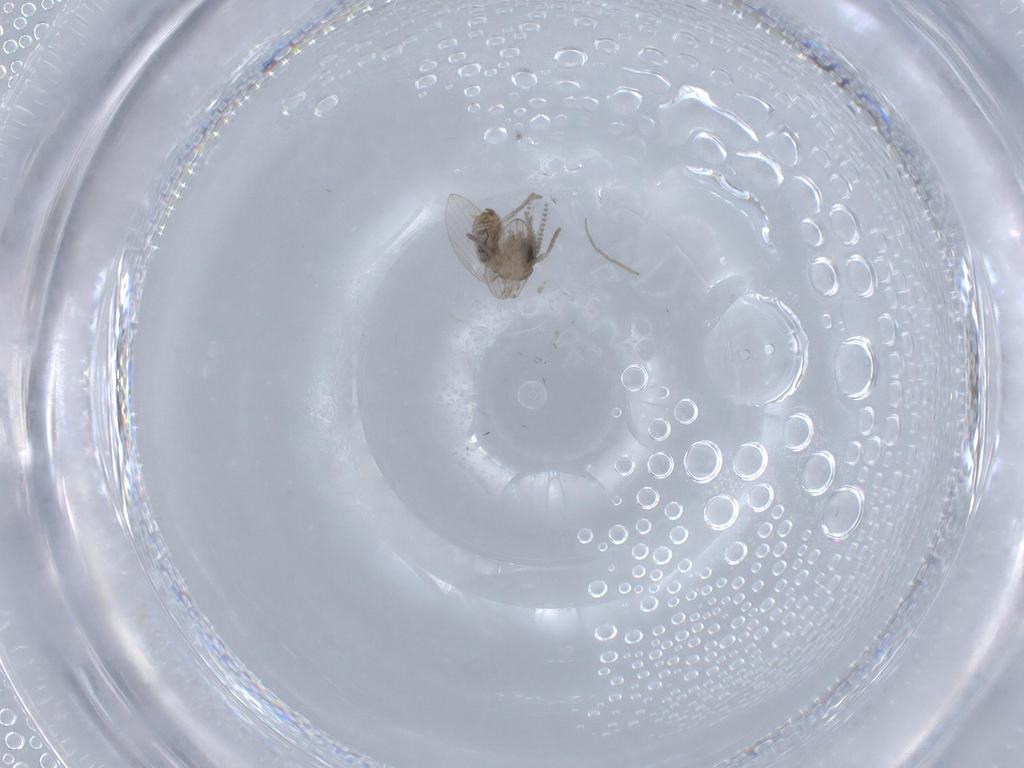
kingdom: Animalia
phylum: Arthropoda
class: Insecta
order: Diptera
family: Psychodidae
